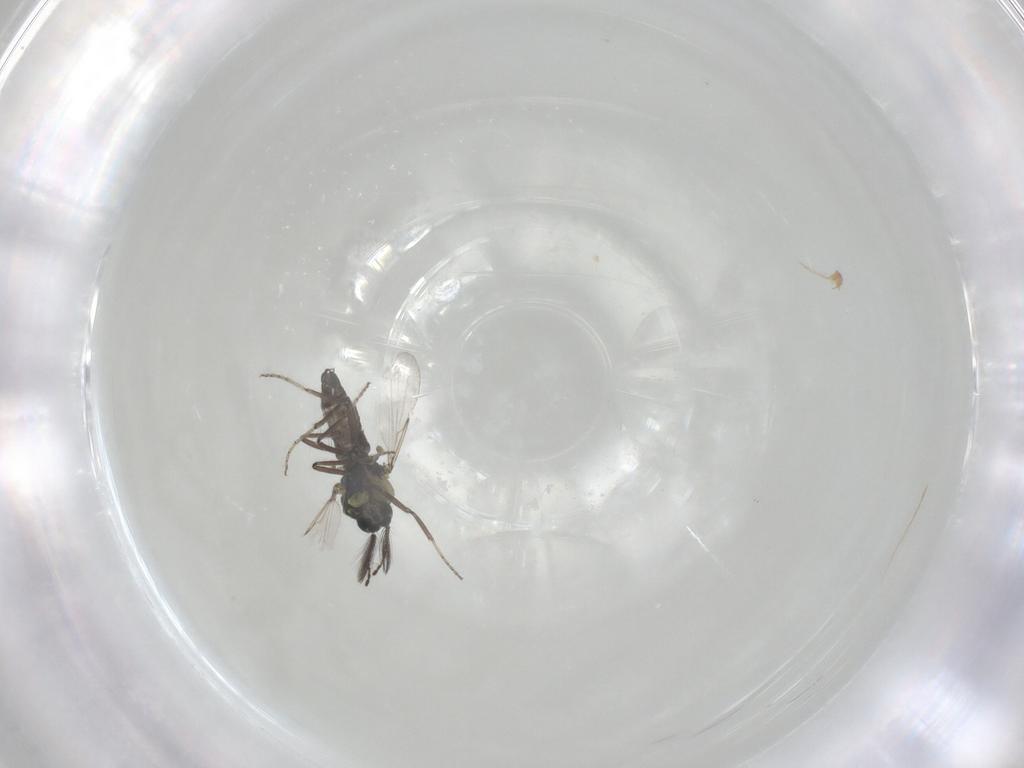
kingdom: Animalia
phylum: Arthropoda
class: Insecta
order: Diptera
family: Ceratopogonidae
